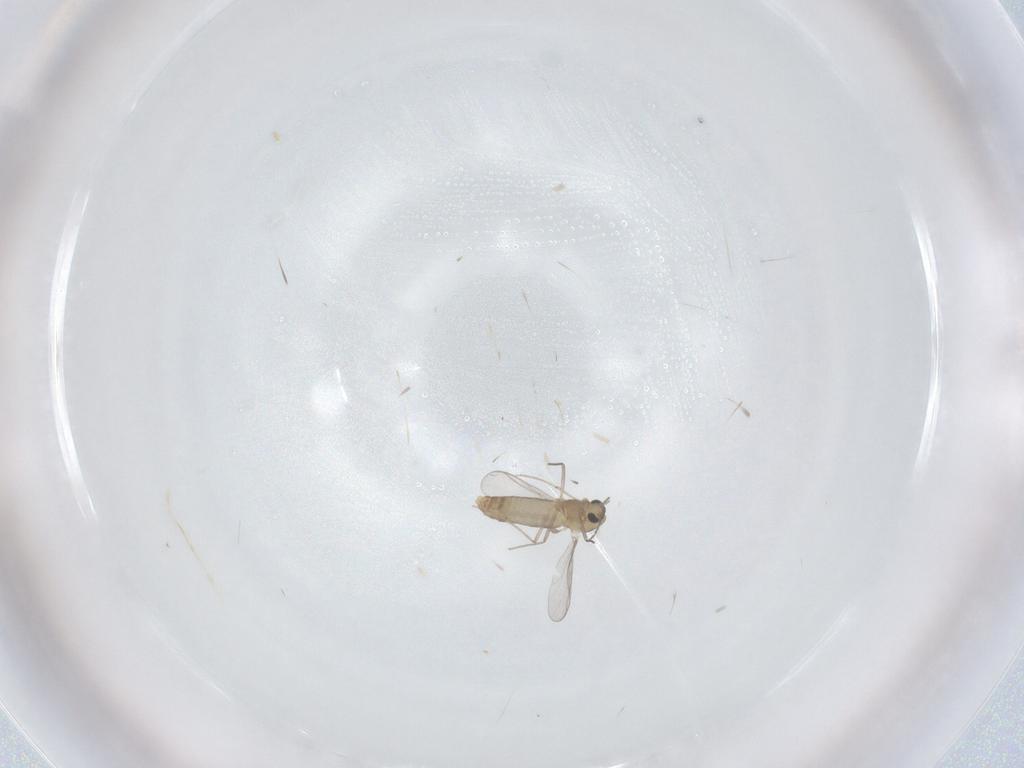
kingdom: Animalia
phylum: Arthropoda
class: Insecta
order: Diptera
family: Chironomidae
